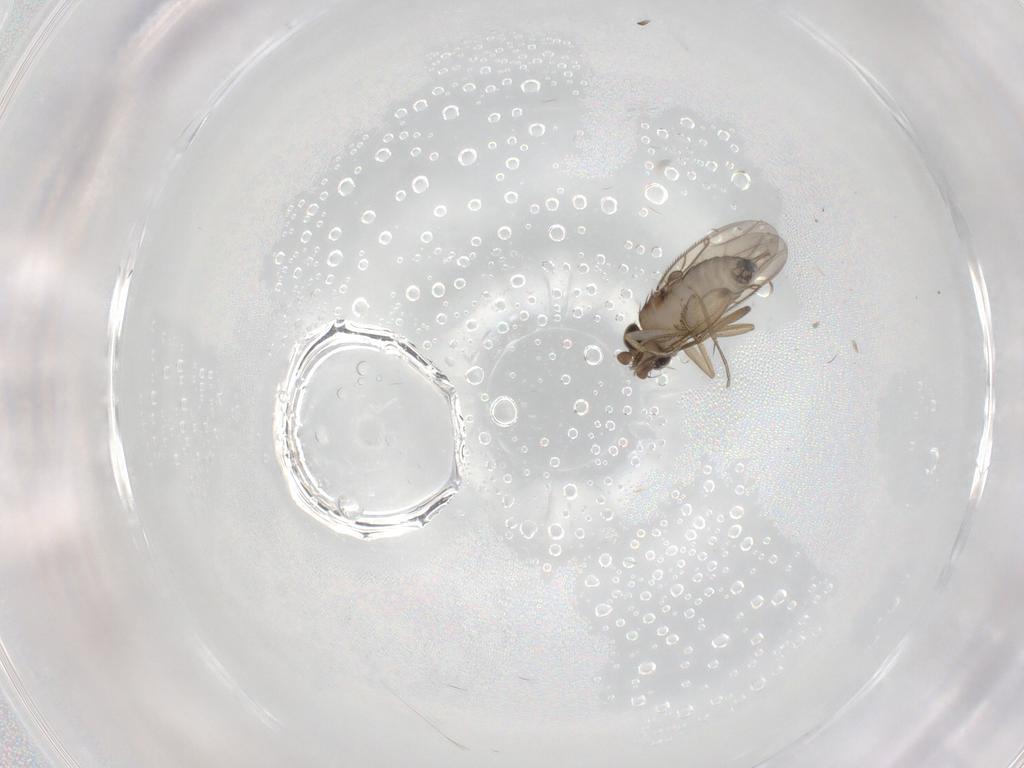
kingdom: Animalia
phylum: Arthropoda
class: Insecta
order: Diptera
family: Phoridae
